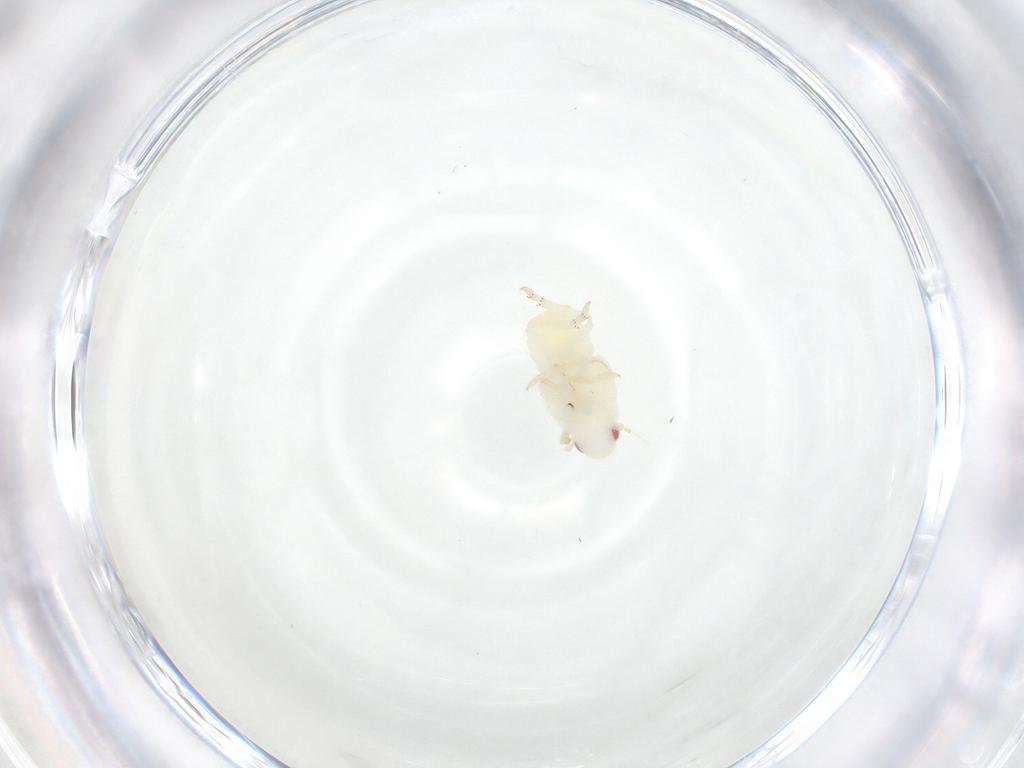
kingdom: Animalia
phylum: Arthropoda
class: Insecta
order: Hemiptera
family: Flatidae
